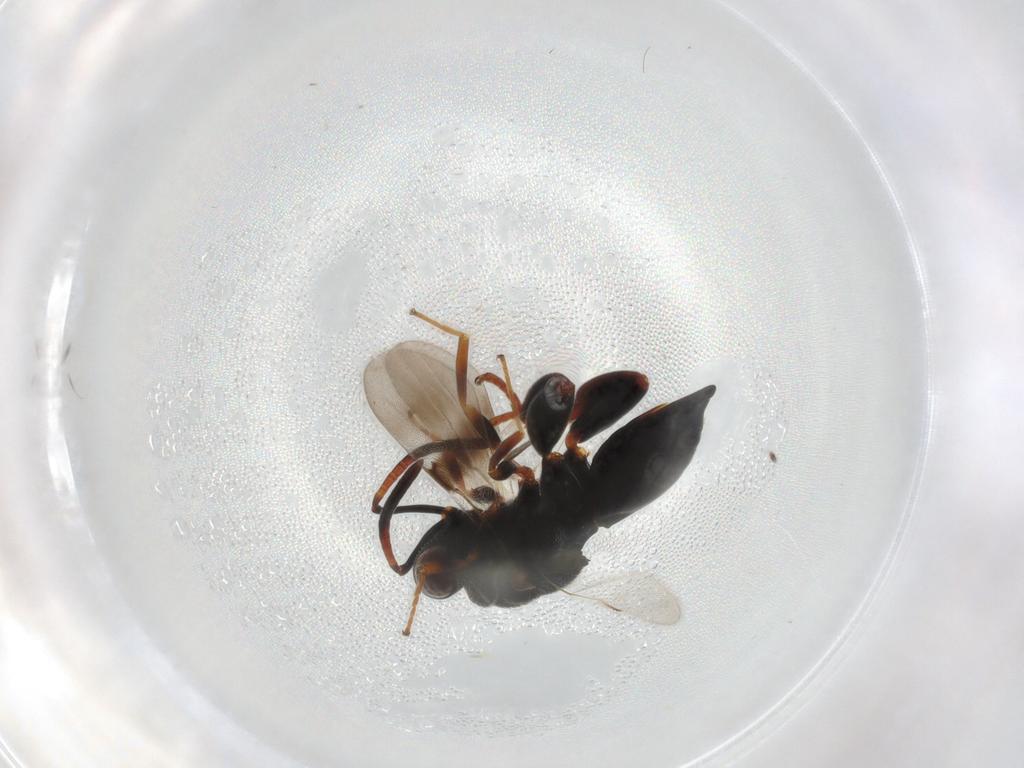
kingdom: Animalia
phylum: Arthropoda
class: Insecta
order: Hymenoptera
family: Chalcididae
